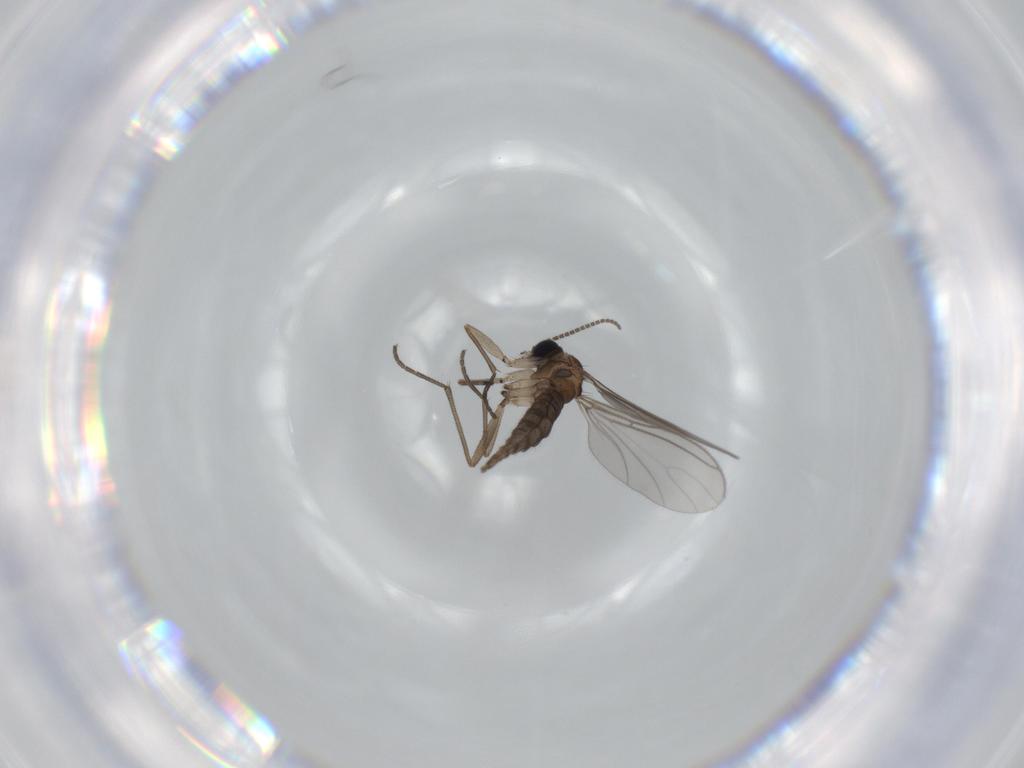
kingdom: Animalia
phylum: Arthropoda
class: Insecta
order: Diptera
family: Sciaridae
